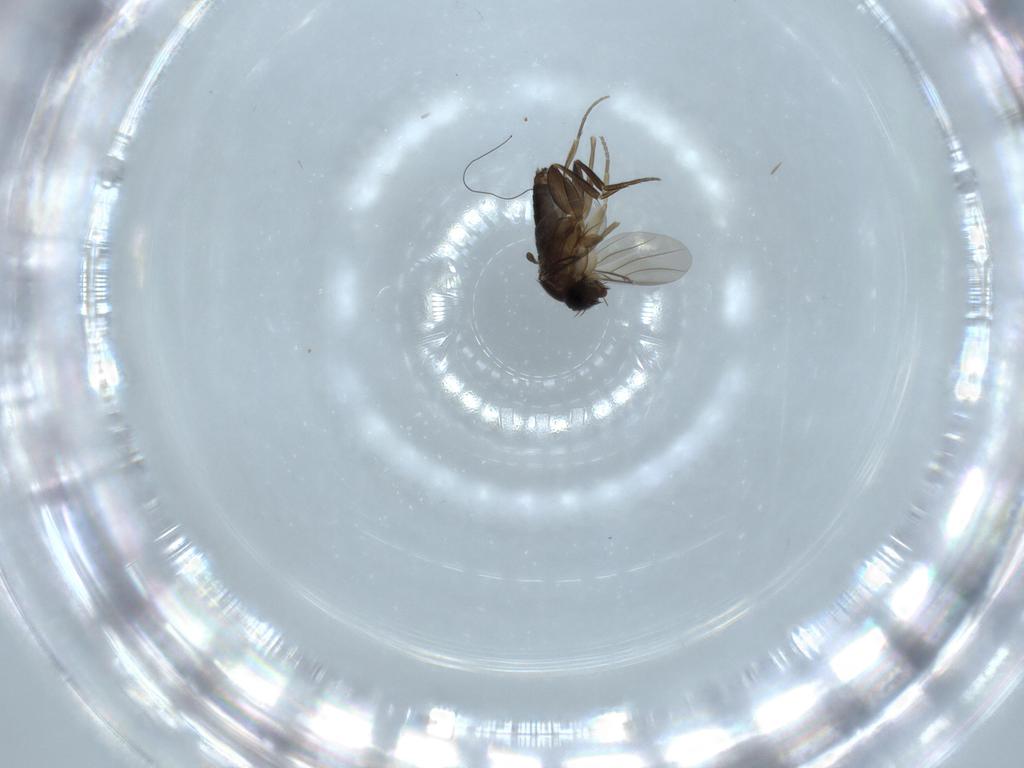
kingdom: Animalia
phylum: Arthropoda
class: Insecta
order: Diptera
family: Phoridae
